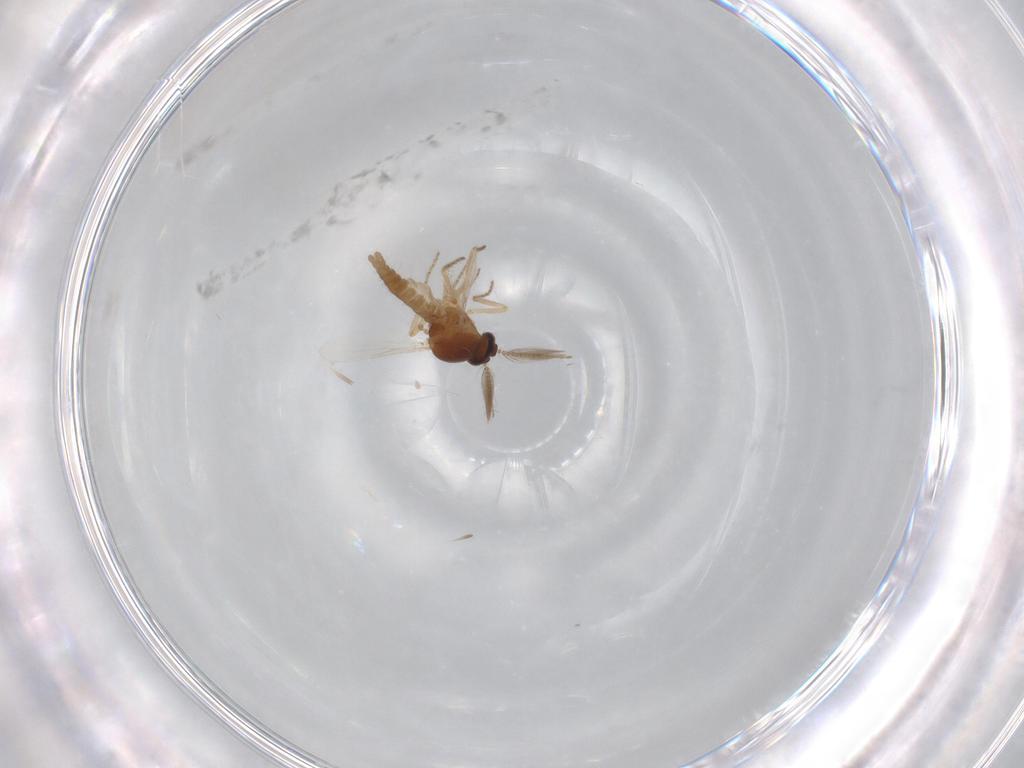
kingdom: Animalia
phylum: Arthropoda
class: Insecta
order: Diptera
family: Ceratopogonidae
